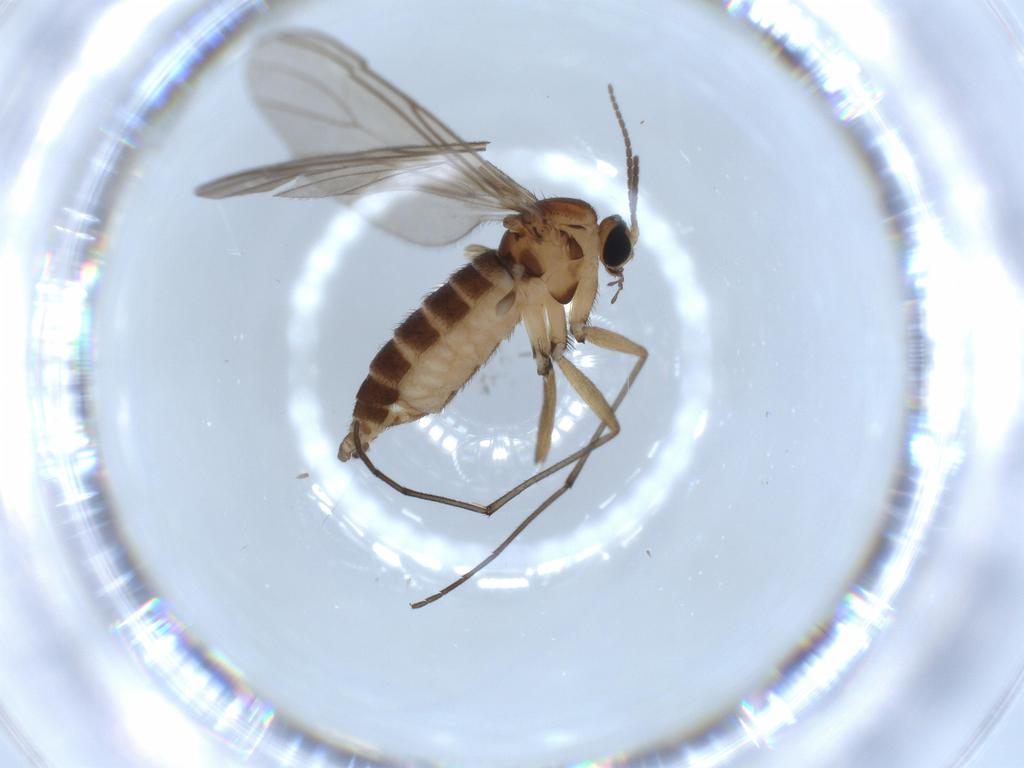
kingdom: Animalia
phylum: Arthropoda
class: Insecta
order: Diptera
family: Sciaridae
